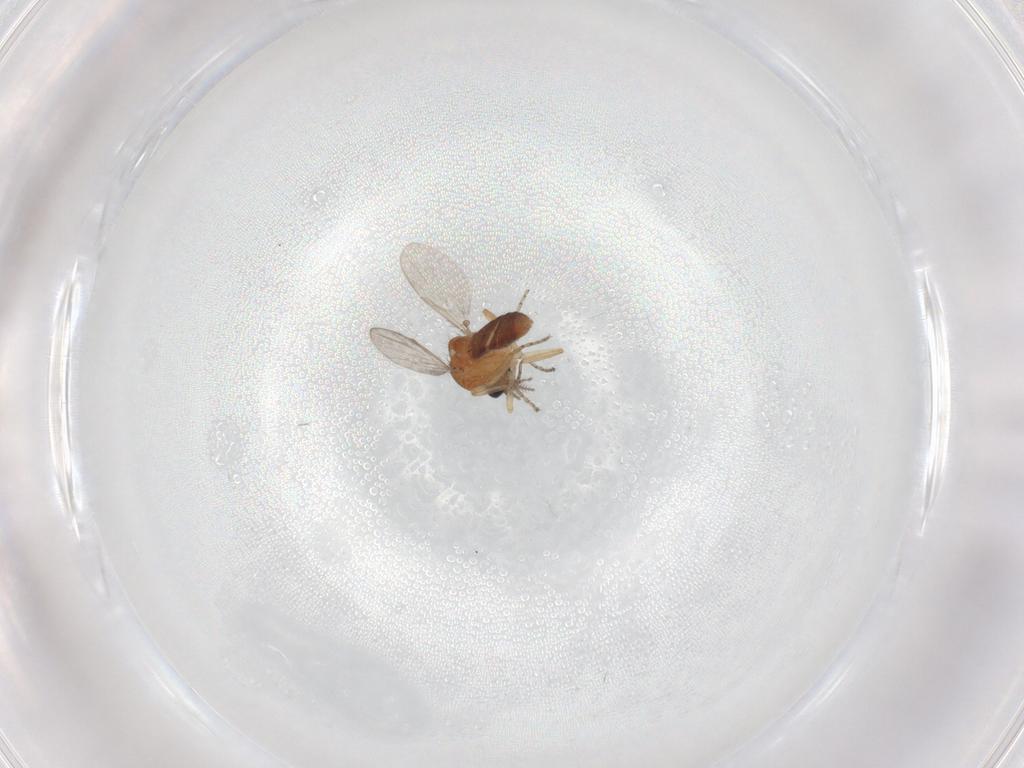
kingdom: Animalia
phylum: Arthropoda
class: Insecta
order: Diptera
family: Ceratopogonidae
